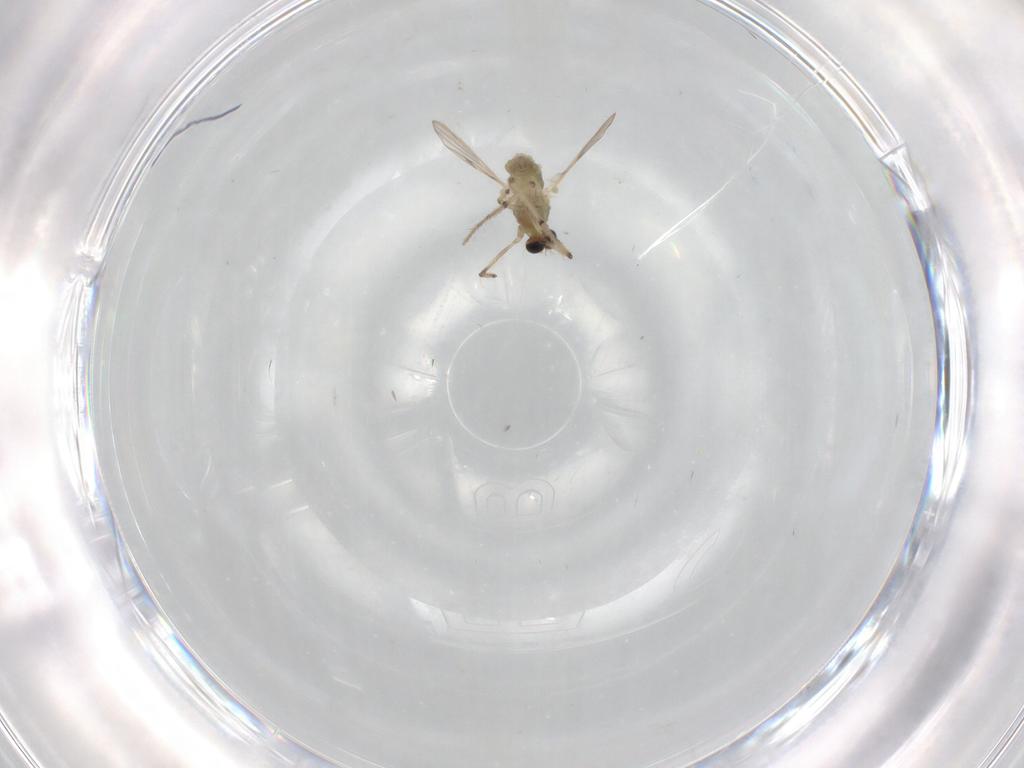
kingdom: Animalia
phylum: Arthropoda
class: Insecta
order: Diptera
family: Chironomidae
